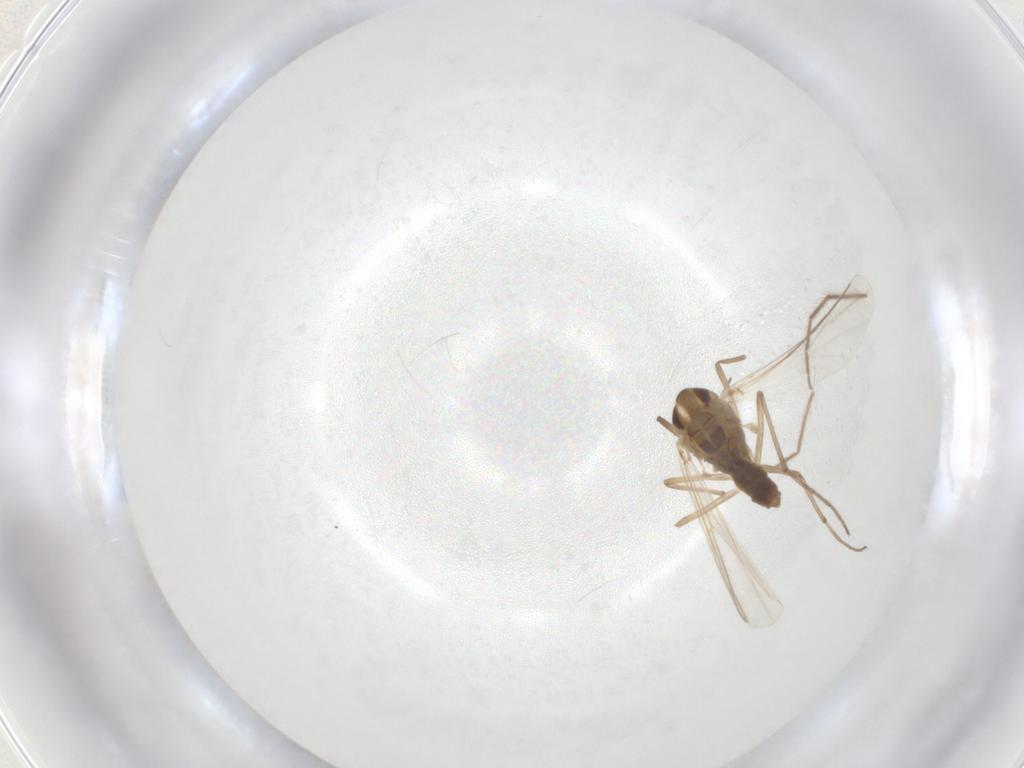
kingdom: Animalia
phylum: Arthropoda
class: Insecta
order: Diptera
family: Chironomidae
